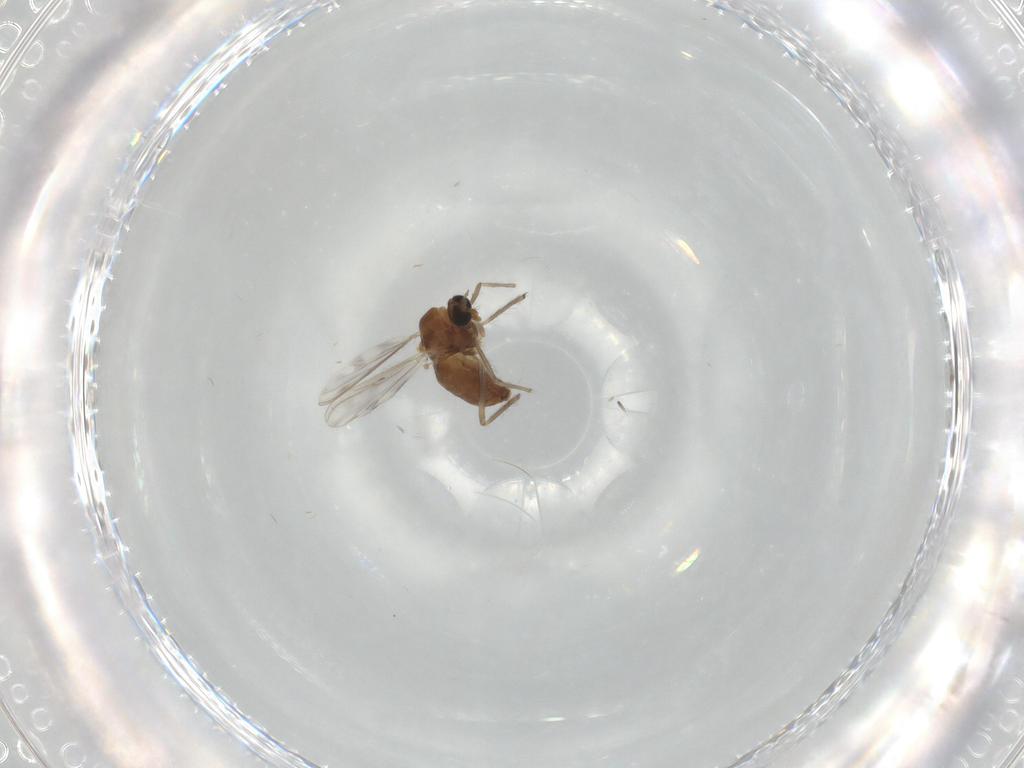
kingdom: Animalia
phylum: Arthropoda
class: Insecta
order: Diptera
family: Chironomidae
